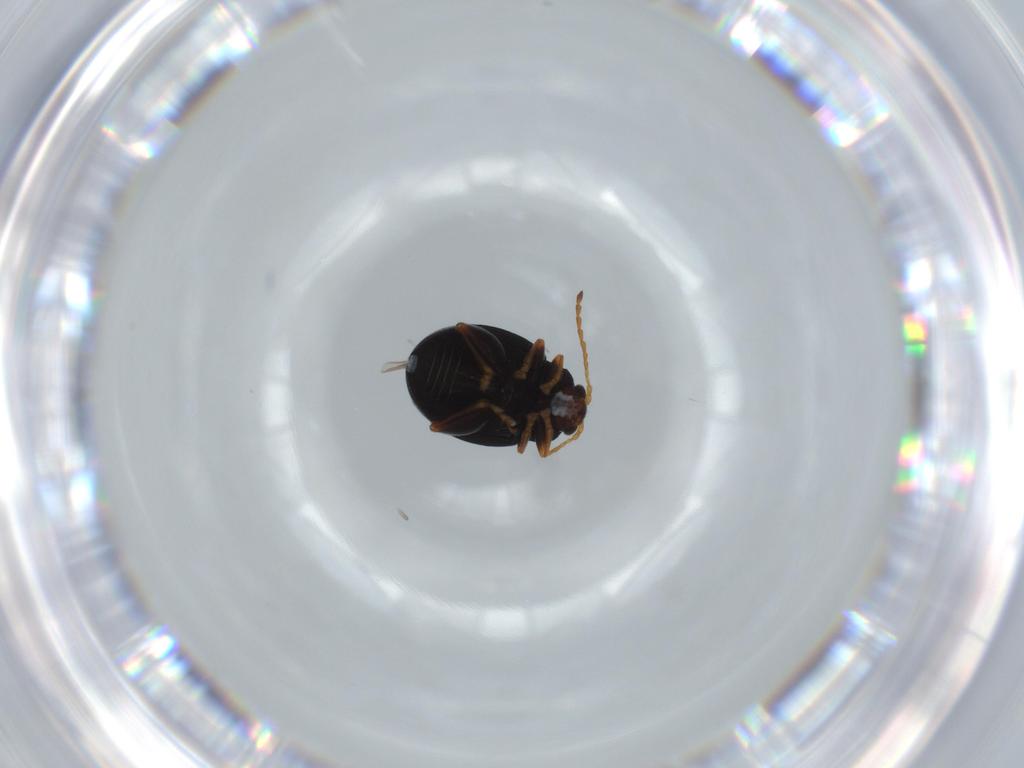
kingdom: Animalia
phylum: Arthropoda
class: Insecta
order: Coleoptera
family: Chrysomelidae
